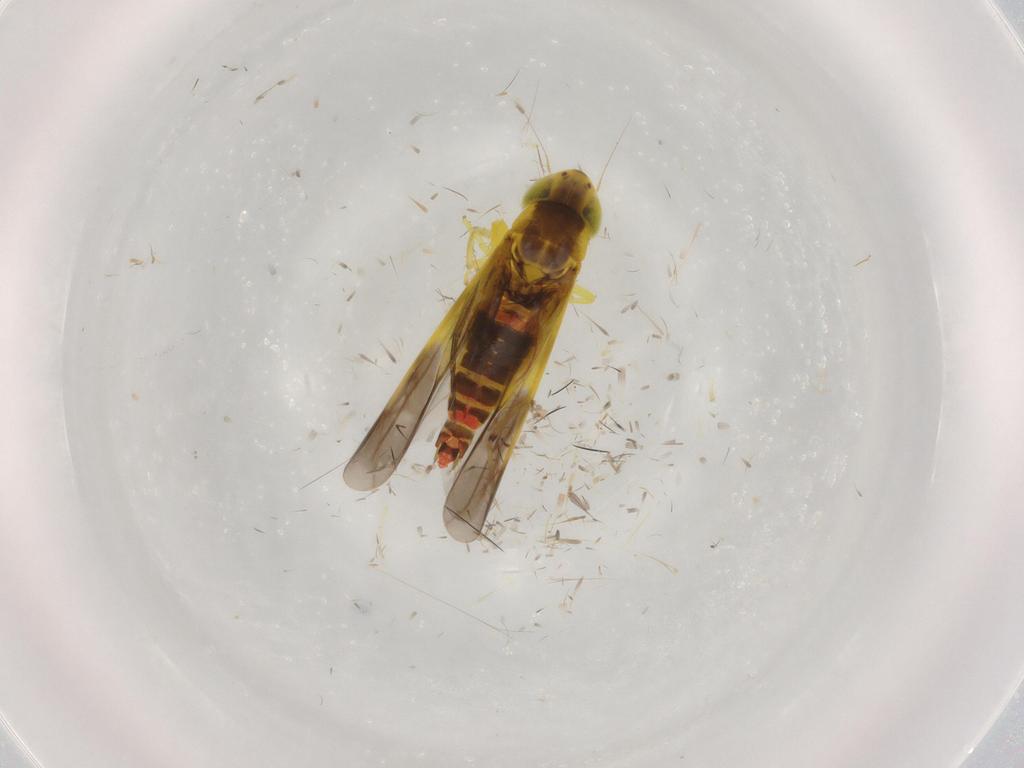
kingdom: Animalia
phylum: Arthropoda
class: Insecta
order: Hemiptera
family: Cicadellidae
